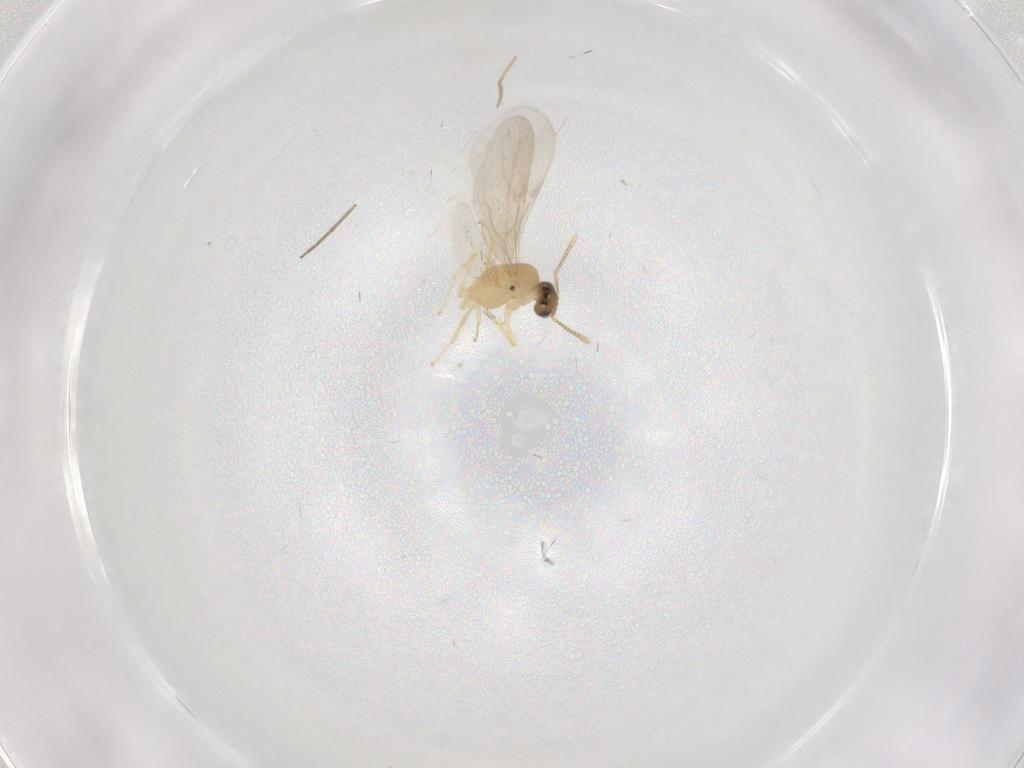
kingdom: Animalia
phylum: Arthropoda
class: Insecta
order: Hymenoptera
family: Formicidae
